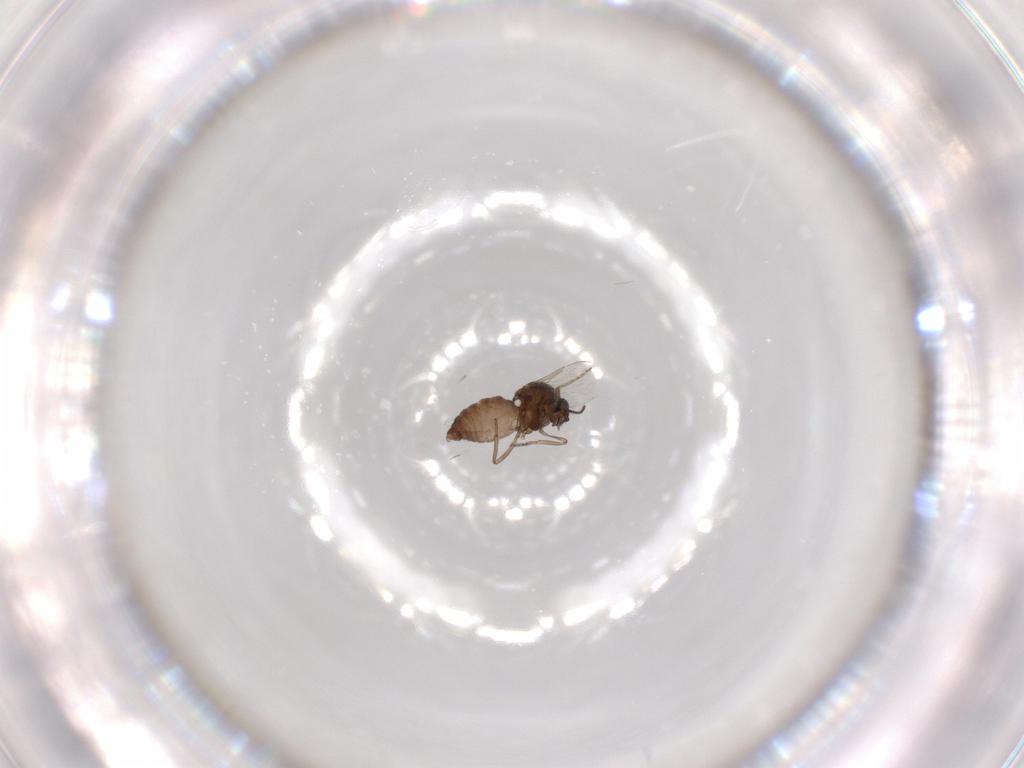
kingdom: Animalia
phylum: Arthropoda
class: Insecta
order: Diptera
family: Ceratopogonidae
